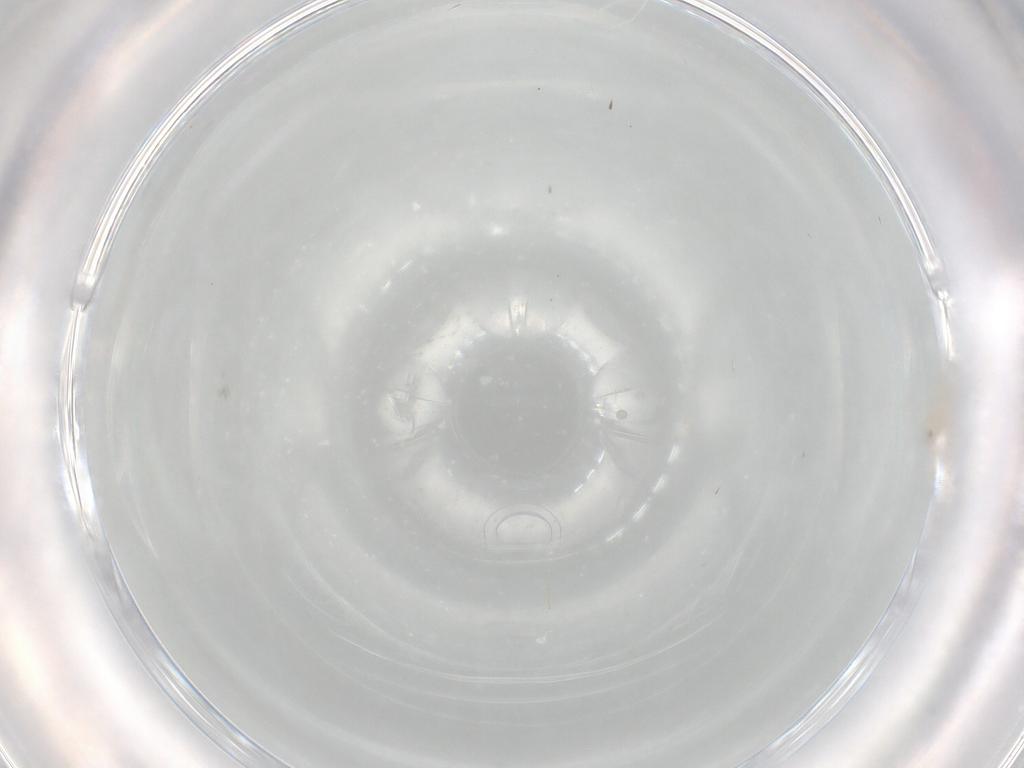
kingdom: Animalia
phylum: Arthropoda
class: Insecta
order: Diptera
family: Cecidomyiidae
